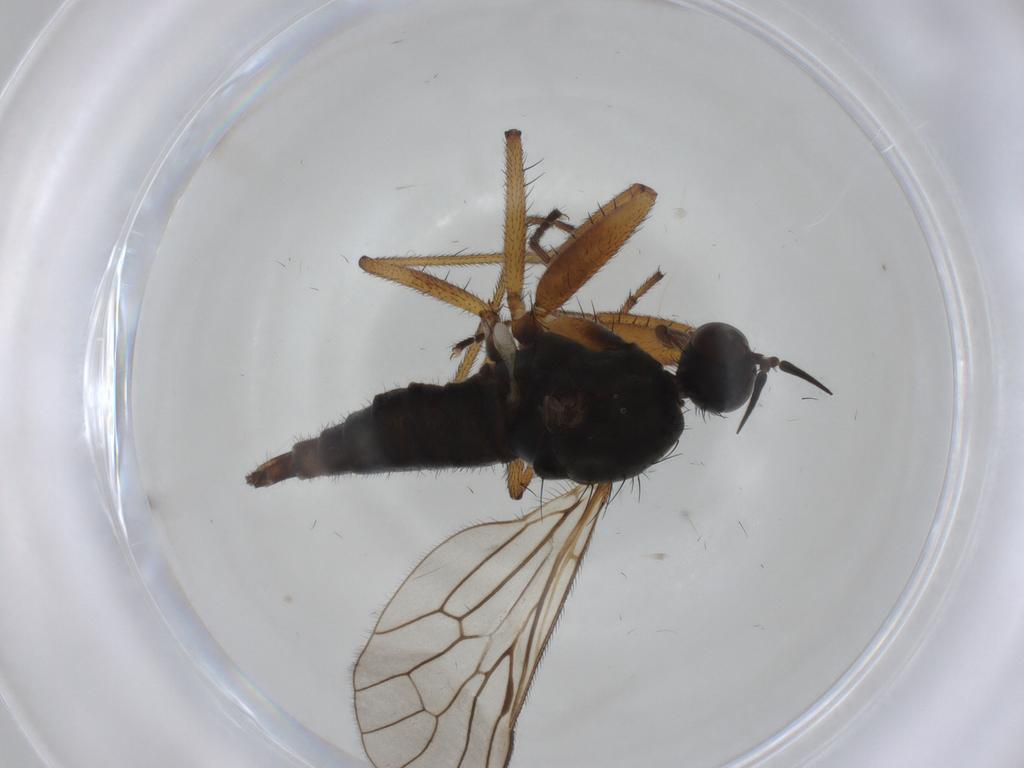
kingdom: Animalia
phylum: Arthropoda
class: Insecta
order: Diptera
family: Empididae
